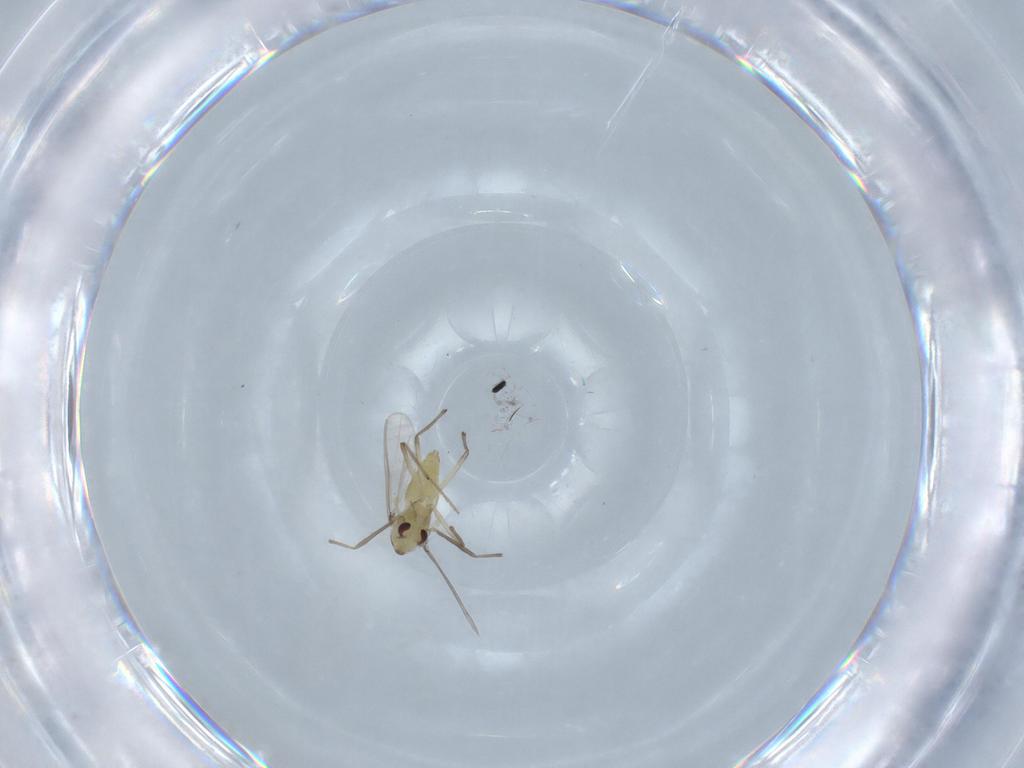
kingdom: Animalia
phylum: Arthropoda
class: Insecta
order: Diptera
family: Chironomidae
